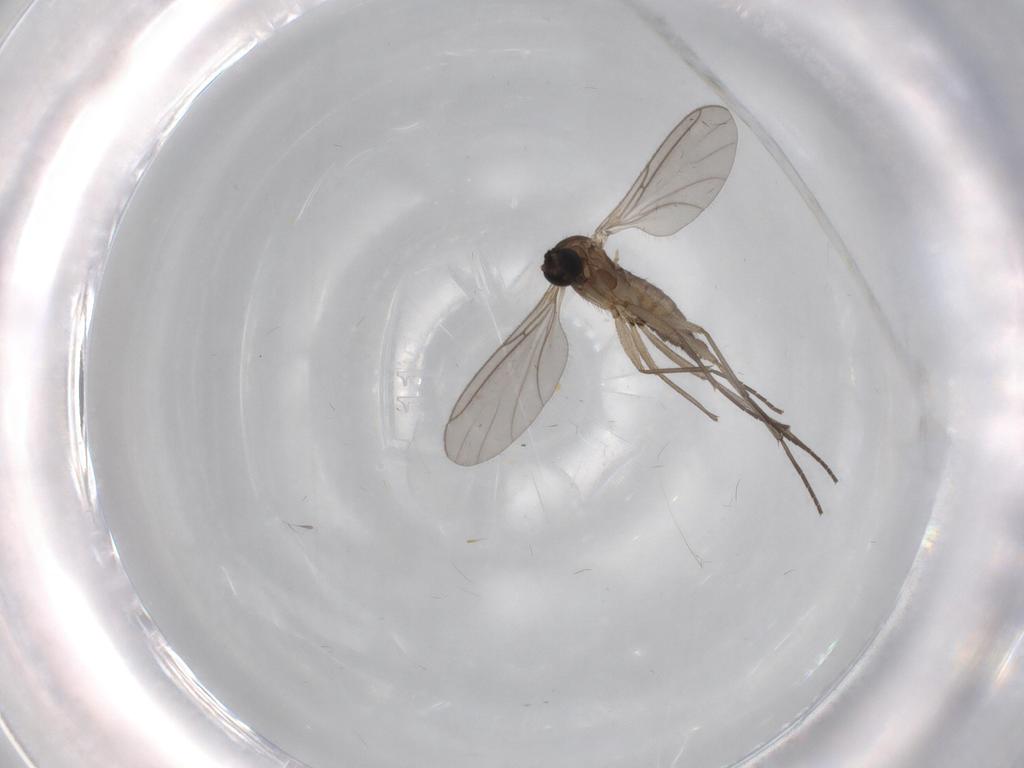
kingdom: Animalia
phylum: Arthropoda
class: Insecta
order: Diptera
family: Sciaridae
